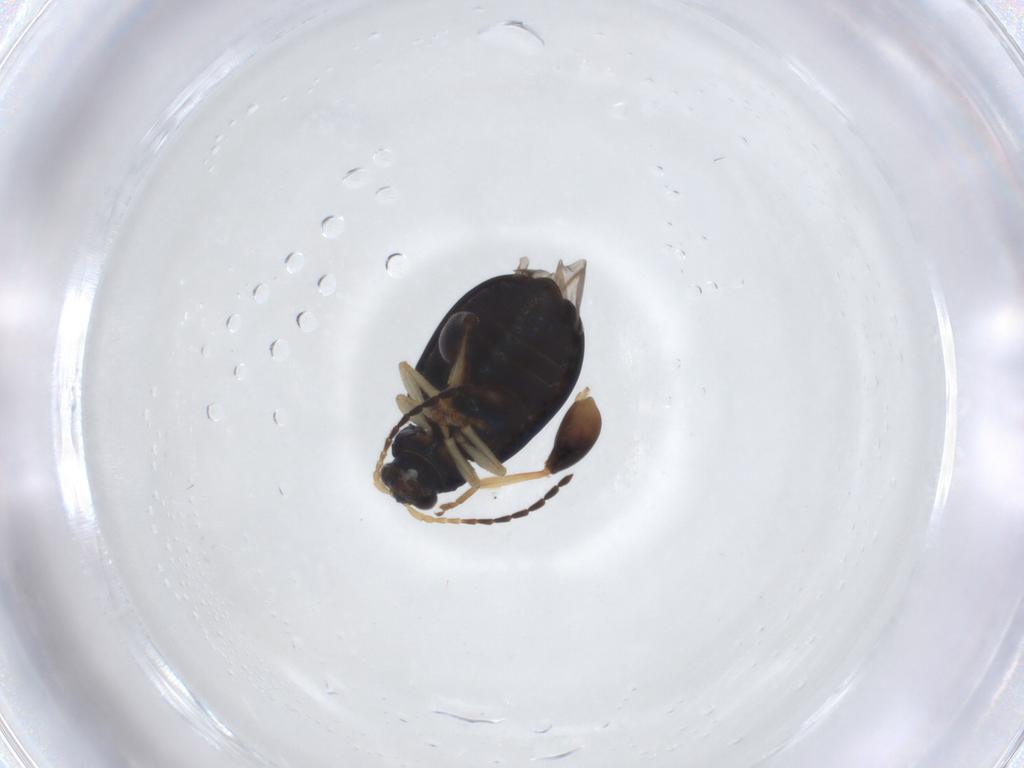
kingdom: Animalia
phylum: Arthropoda
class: Insecta
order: Coleoptera
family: Chrysomelidae
